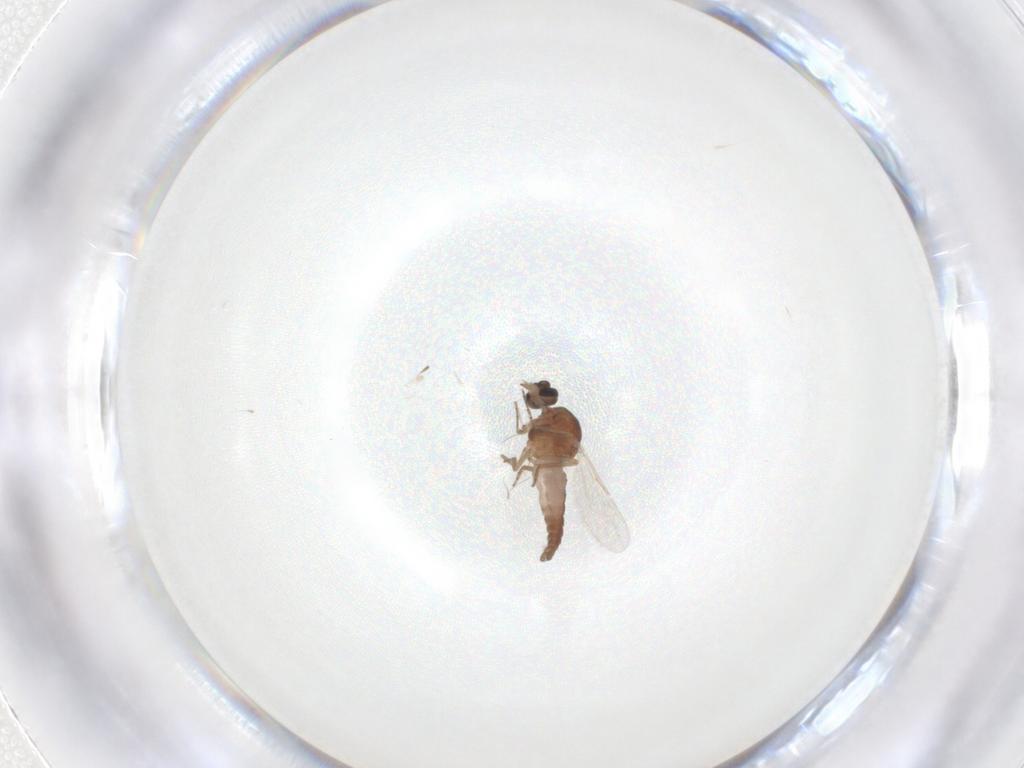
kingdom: Animalia
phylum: Arthropoda
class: Insecta
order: Diptera
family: Ceratopogonidae
